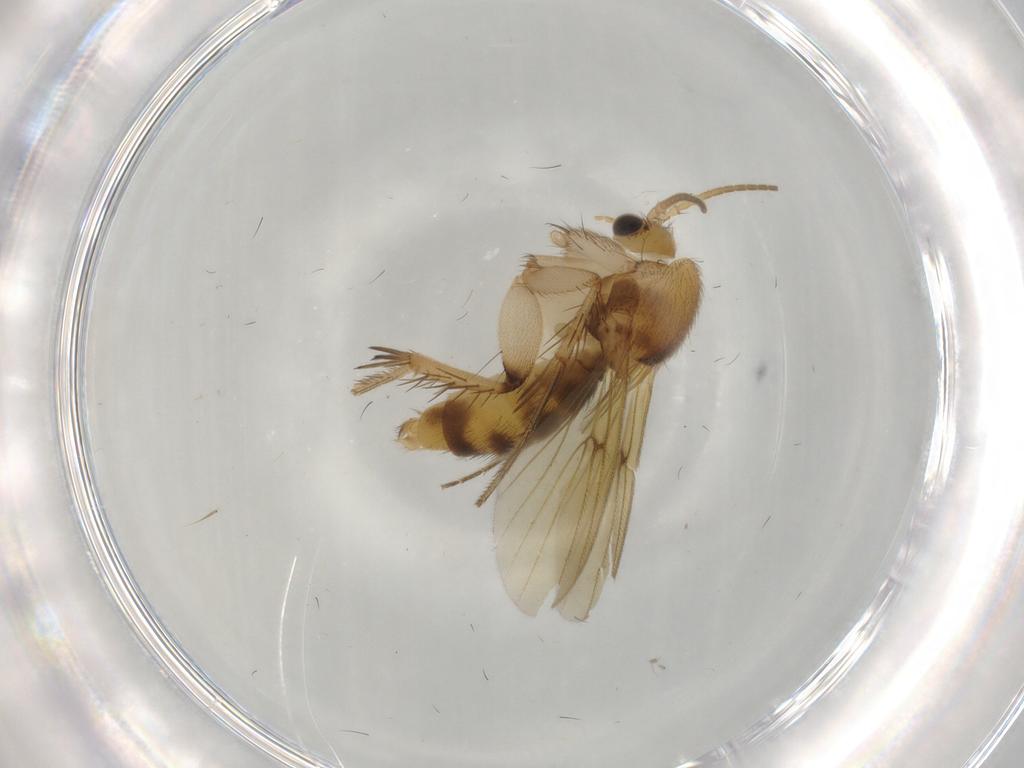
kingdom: Animalia
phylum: Arthropoda
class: Insecta
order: Diptera
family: Mycetophilidae
